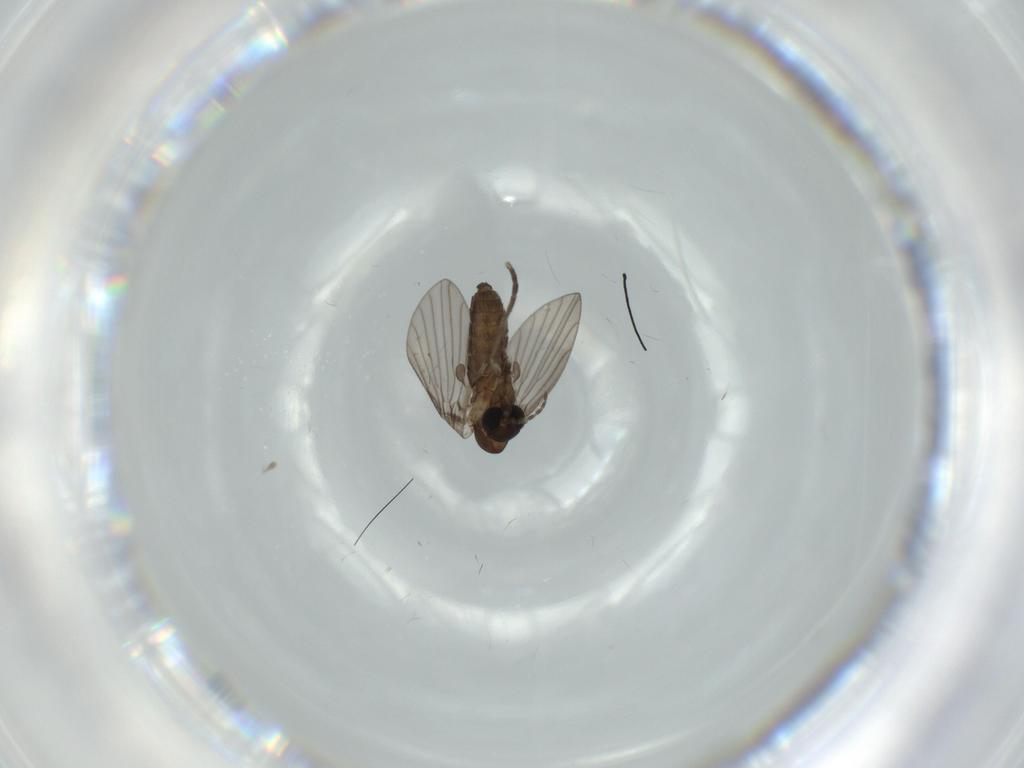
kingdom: Animalia
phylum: Arthropoda
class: Insecta
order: Diptera
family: Psychodidae
